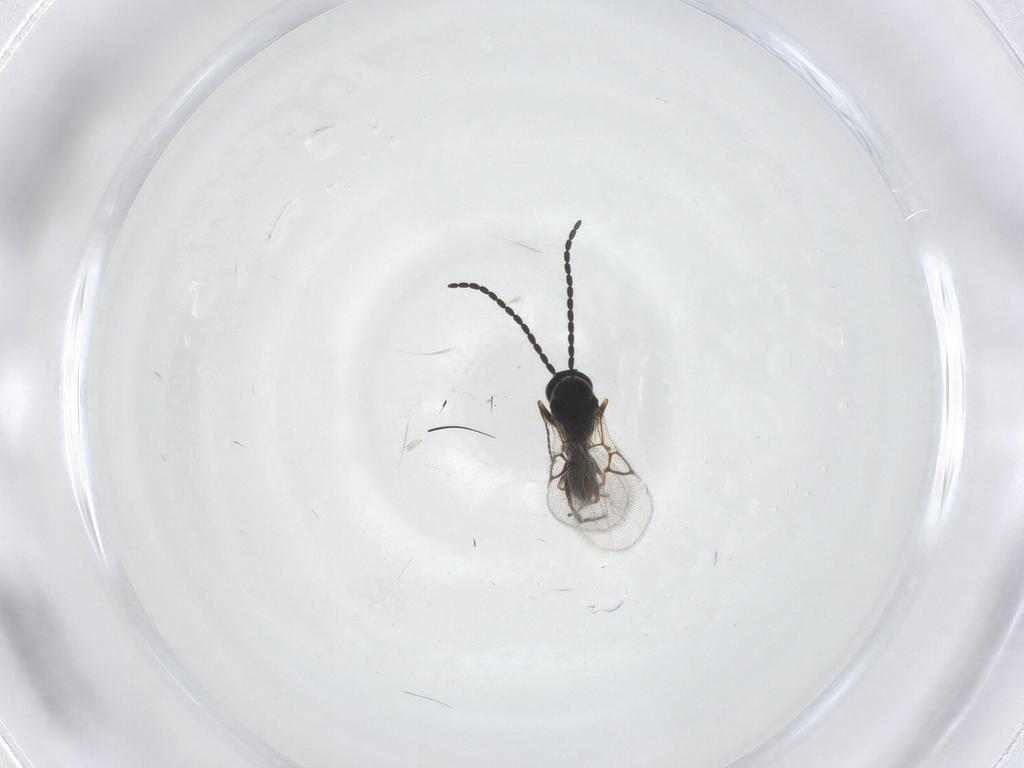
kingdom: Animalia
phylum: Arthropoda
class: Insecta
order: Hymenoptera
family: Figitidae
